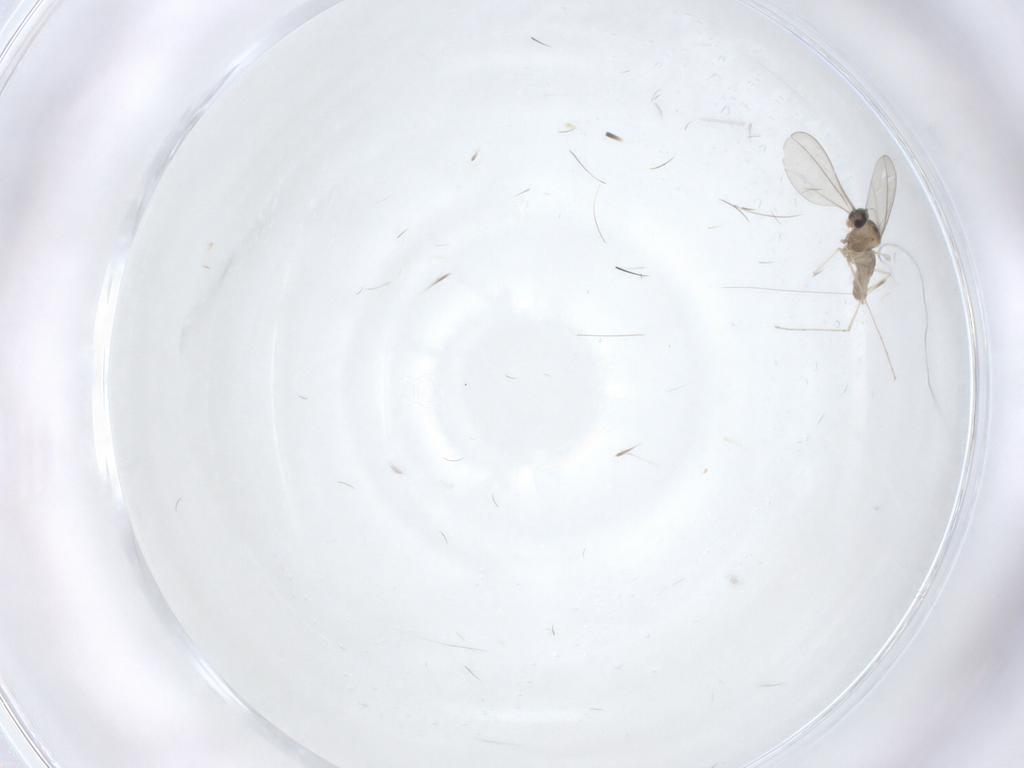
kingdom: Animalia
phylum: Arthropoda
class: Insecta
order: Diptera
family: Cecidomyiidae
